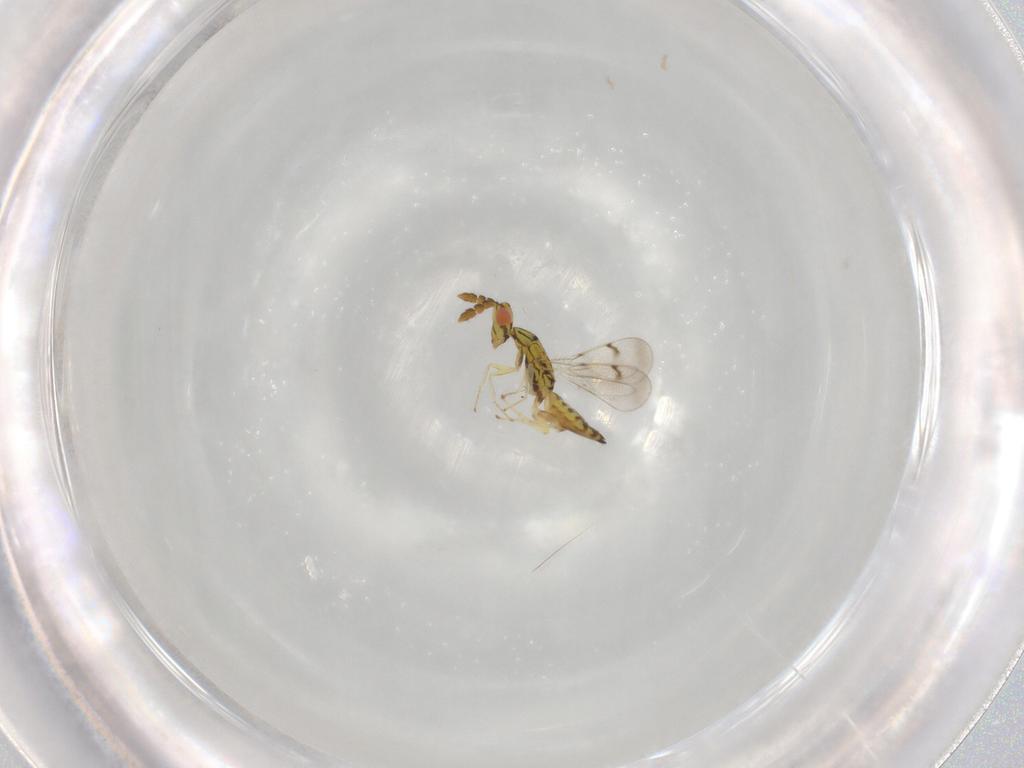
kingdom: Animalia
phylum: Arthropoda
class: Insecta
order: Hymenoptera
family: Eulophidae
